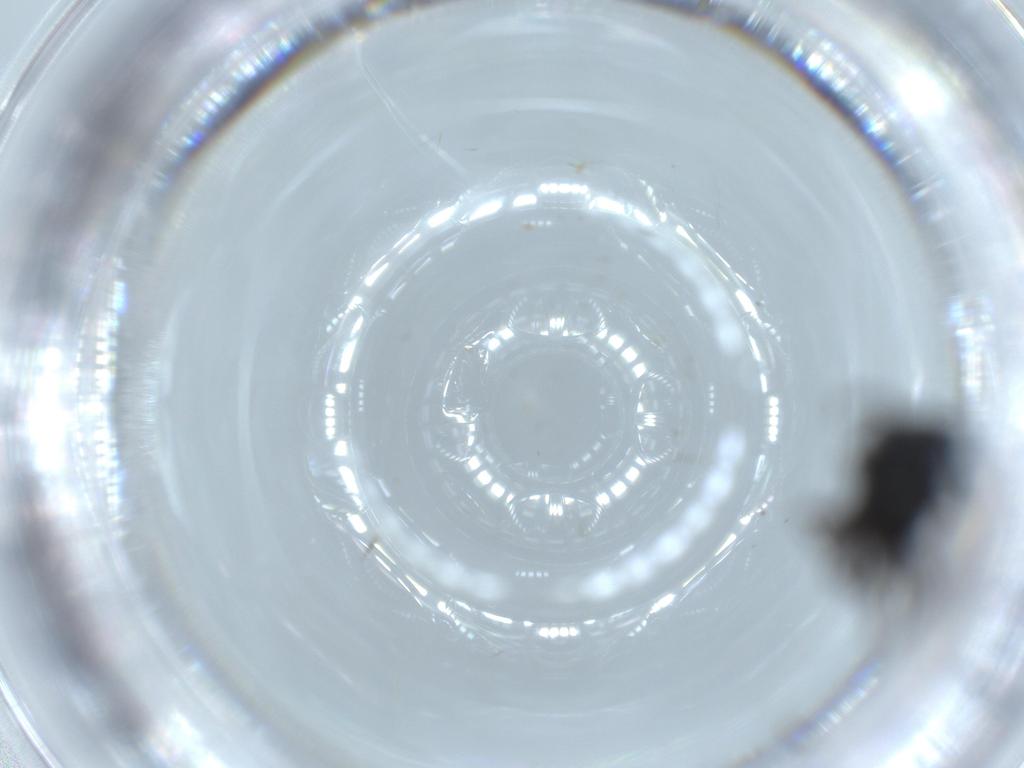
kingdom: Animalia
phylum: Arthropoda
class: Insecta
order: Diptera
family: Scatopsidae
